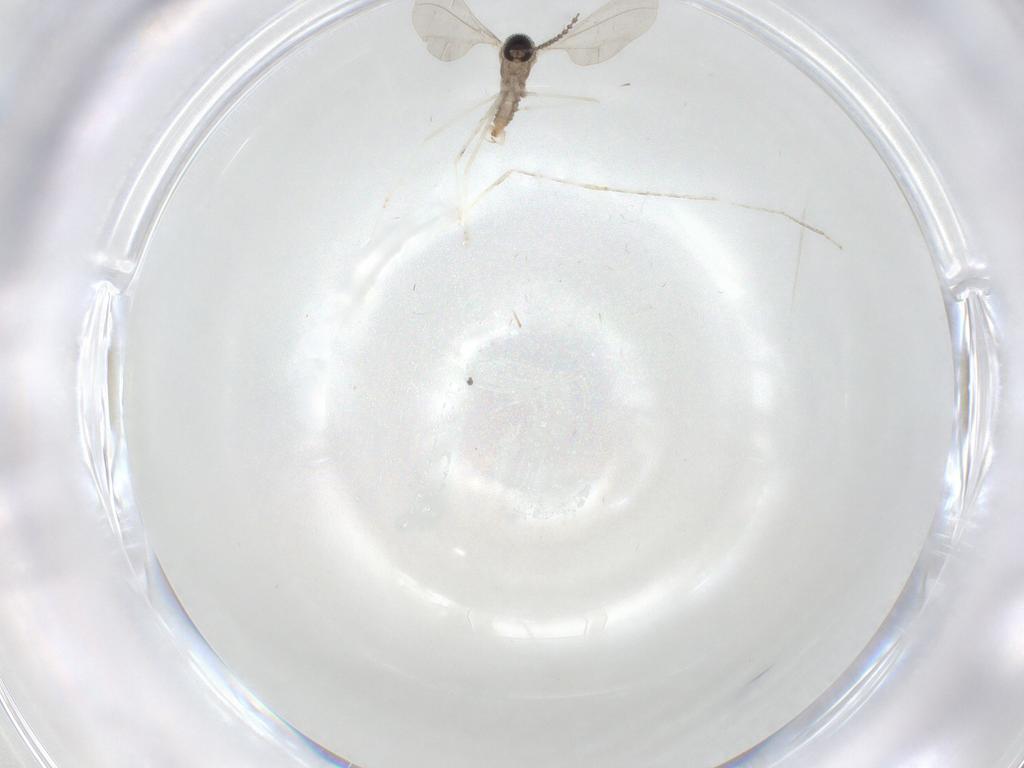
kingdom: Animalia
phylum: Arthropoda
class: Insecta
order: Diptera
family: Cecidomyiidae
